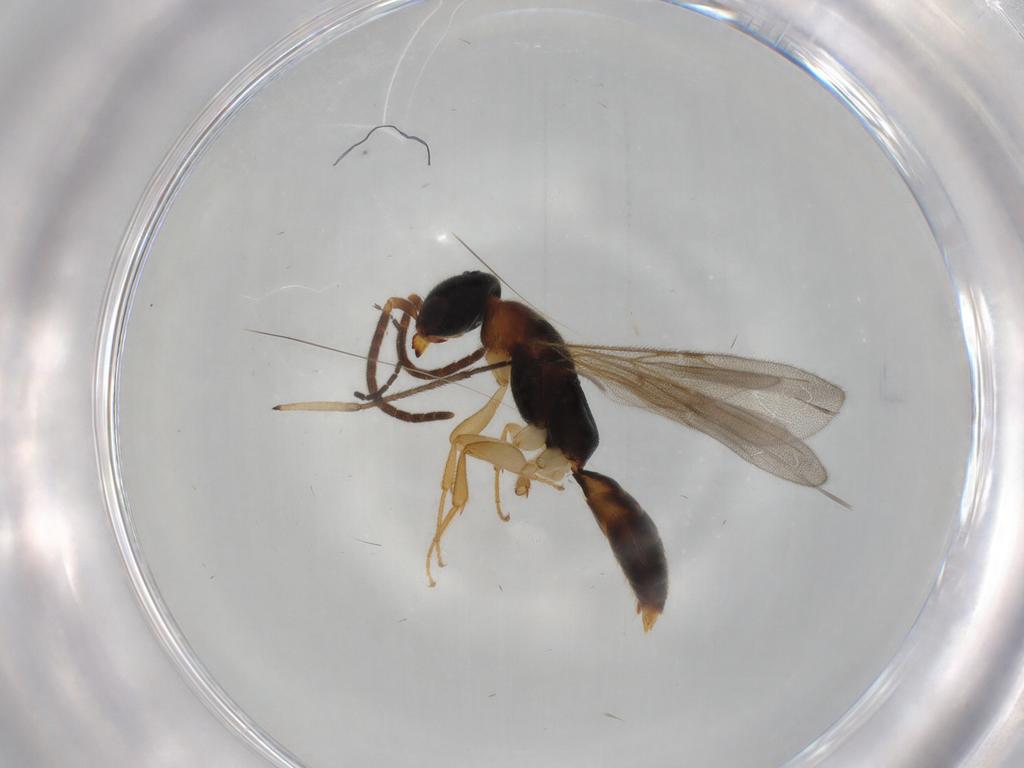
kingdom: Animalia
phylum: Arthropoda
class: Insecta
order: Hymenoptera
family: Bethylidae
